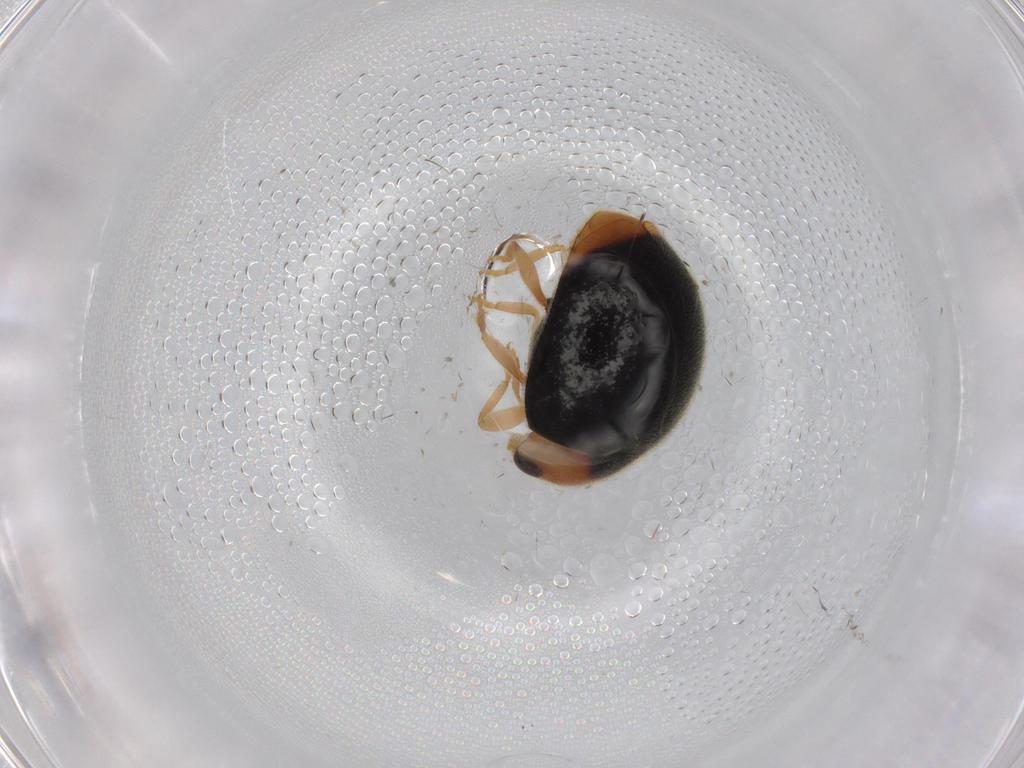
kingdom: Animalia
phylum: Arthropoda
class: Insecta
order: Coleoptera
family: Coccinellidae
